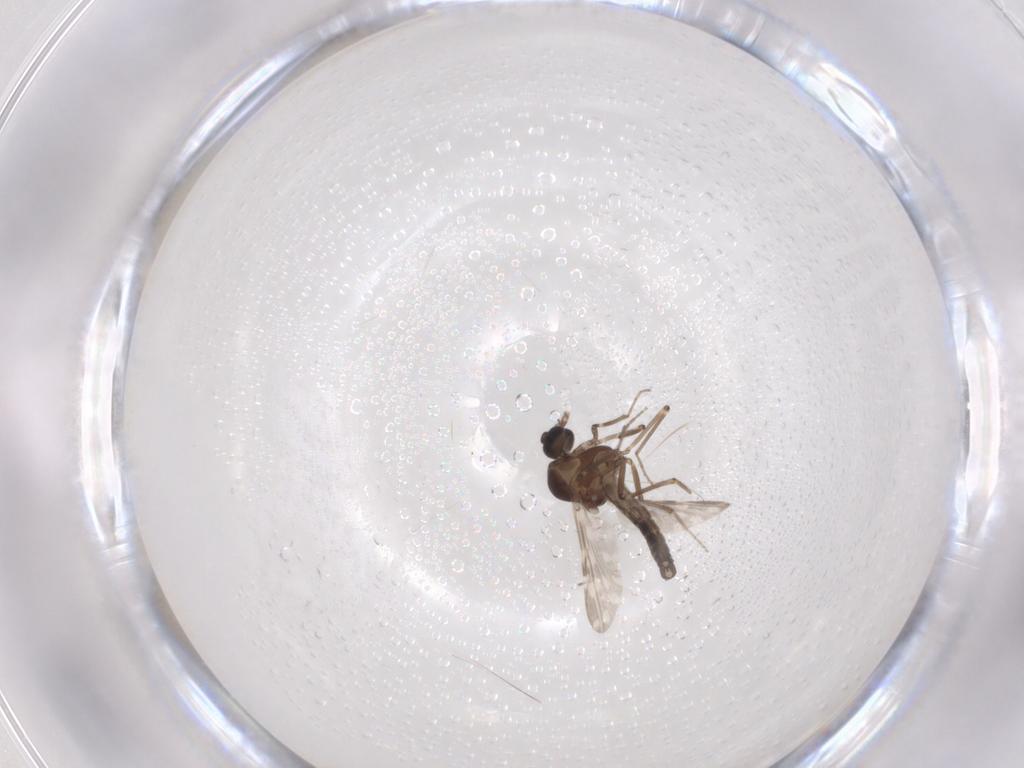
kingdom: Animalia
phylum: Arthropoda
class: Insecta
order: Diptera
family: Ceratopogonidae
